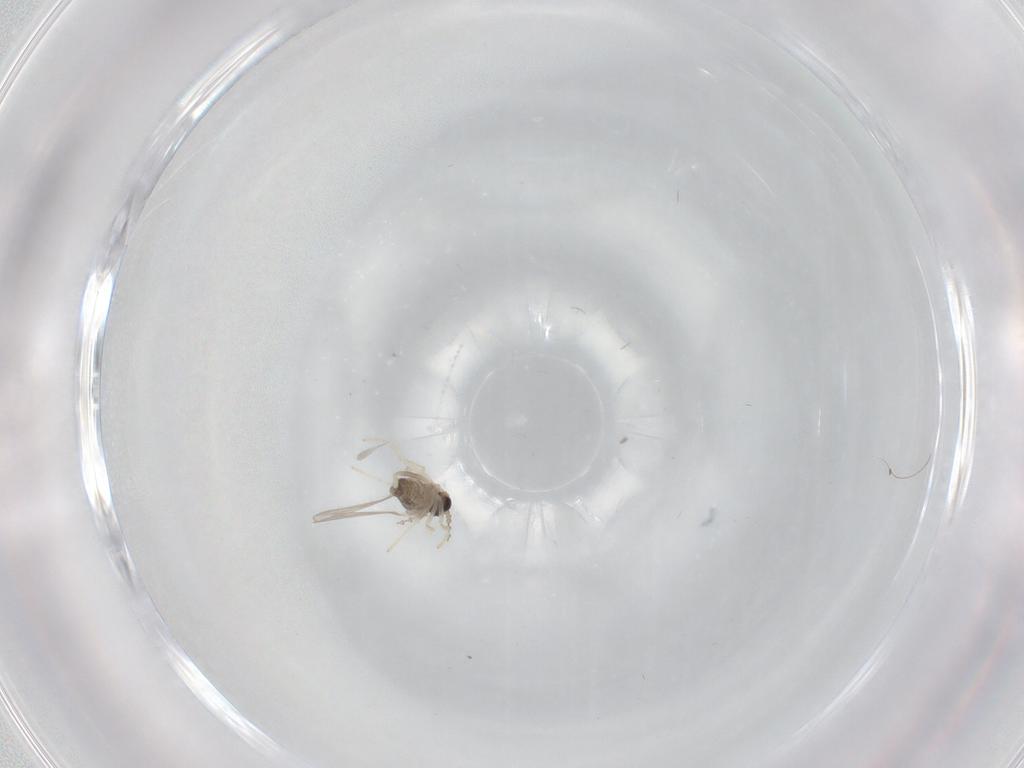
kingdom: Animalia
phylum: Arthropoda
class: Insecta
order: Diptera
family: Cecidomyiidae
